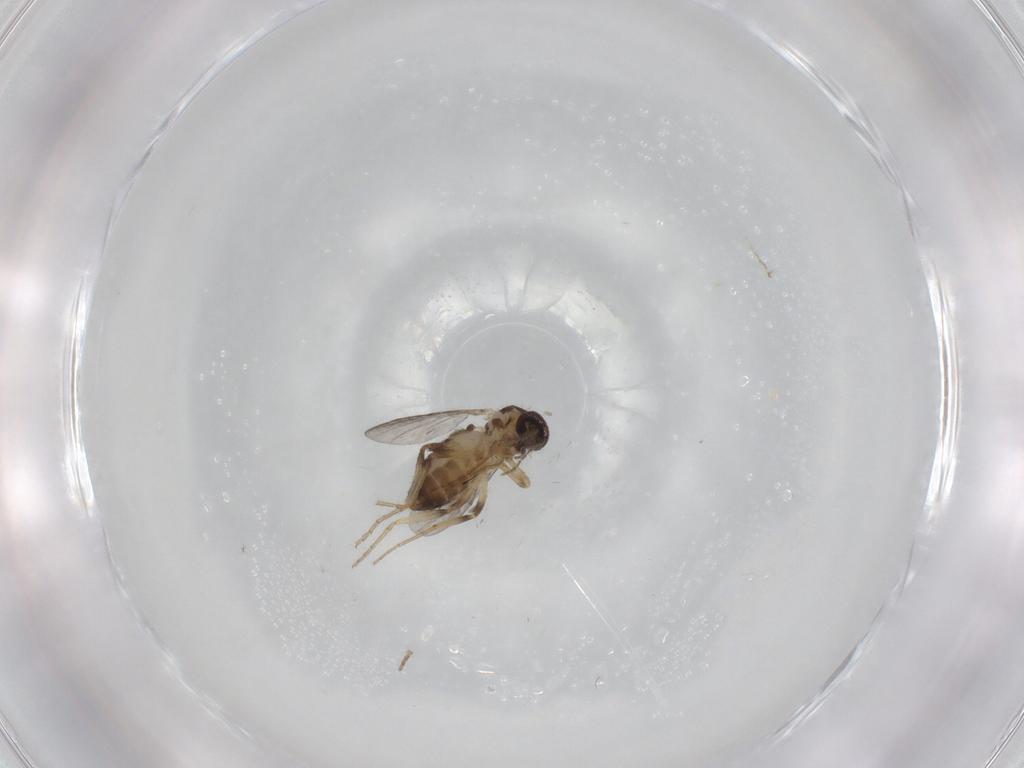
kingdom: Animalia
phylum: Arthropoda
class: Insecta
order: Diptera
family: Ceratopogonidae
